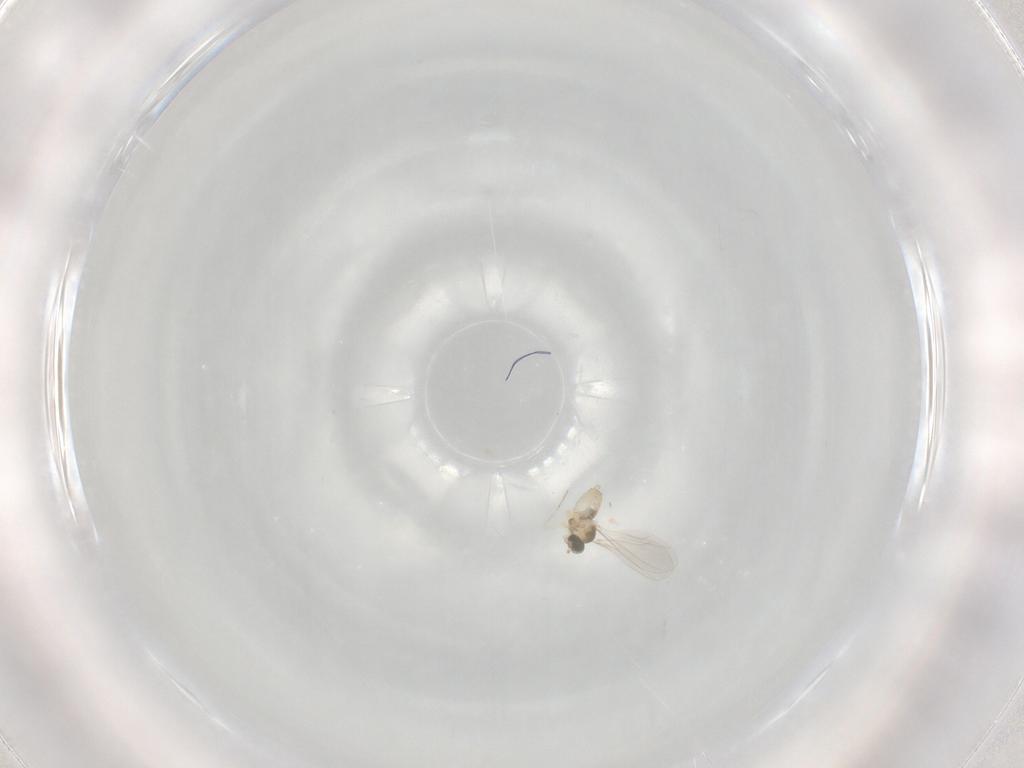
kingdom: Animalia
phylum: Arthropoda
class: Insecta
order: Diptera
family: Cecidomyiidae
